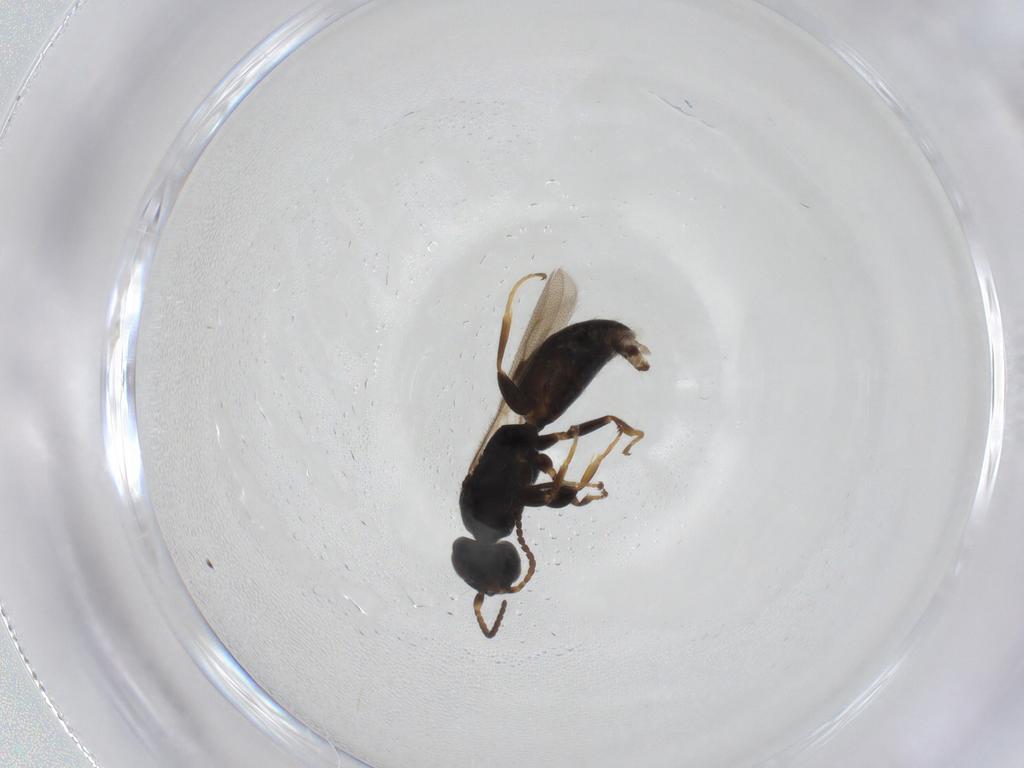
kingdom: Animalia
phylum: Arthropoda
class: Insecta
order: Hymenoptera
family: Bethylidae
